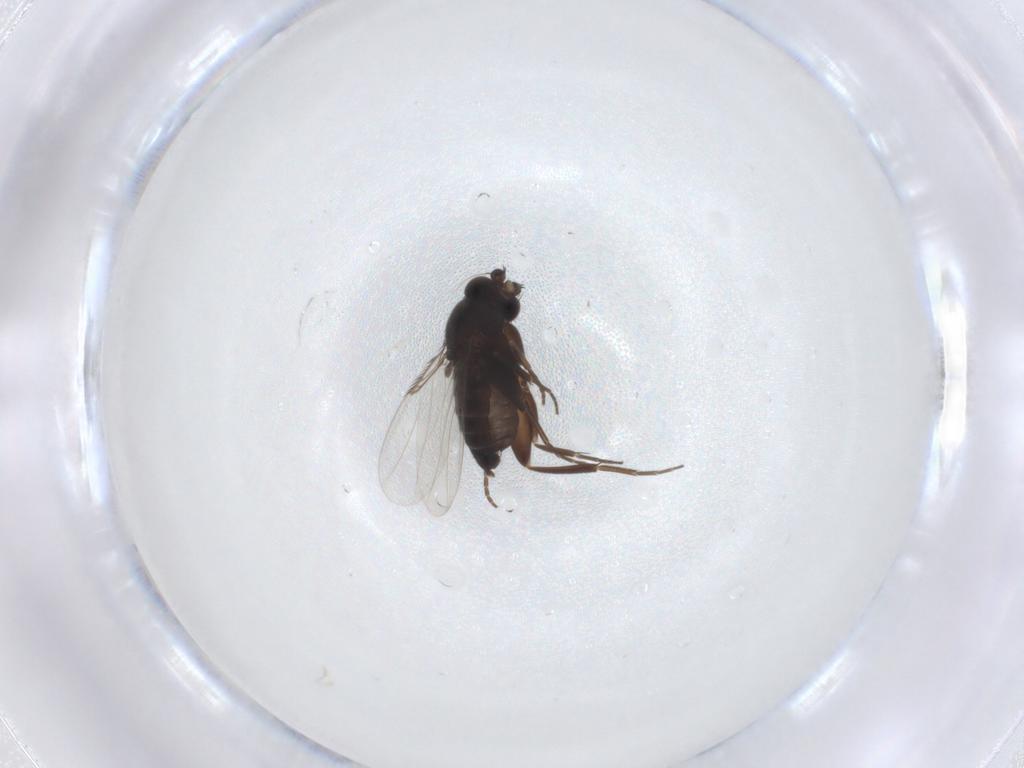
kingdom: Animalia
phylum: Arthropoda
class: Insecta
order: Diptera
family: Phoridae
